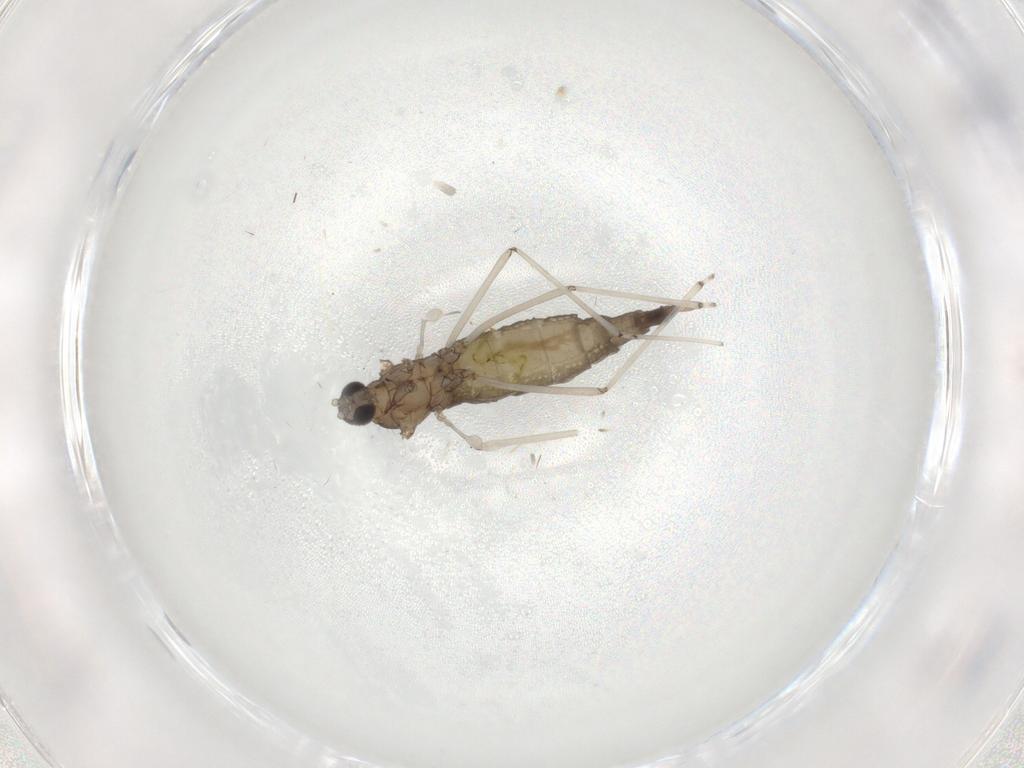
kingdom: Animalia
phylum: Arthropoda
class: Insecta
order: Diptera
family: Cecidomyiidae
